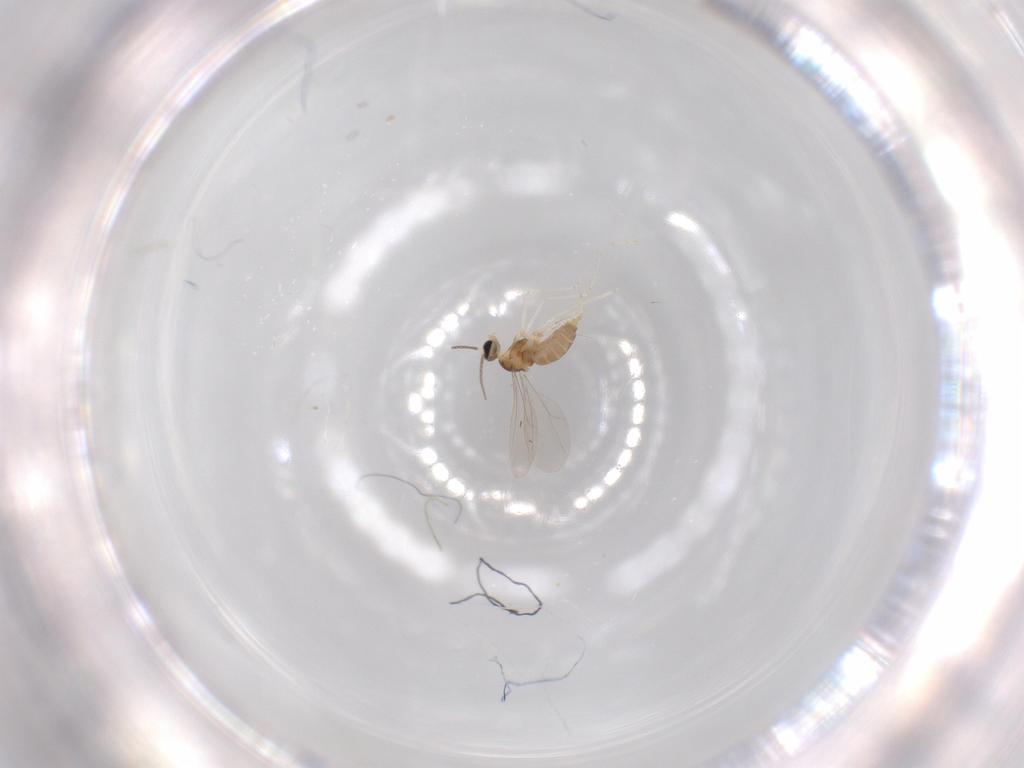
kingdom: Animalia
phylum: Arthropoda
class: Insecta
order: Diptera
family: Cecidomyiidae
